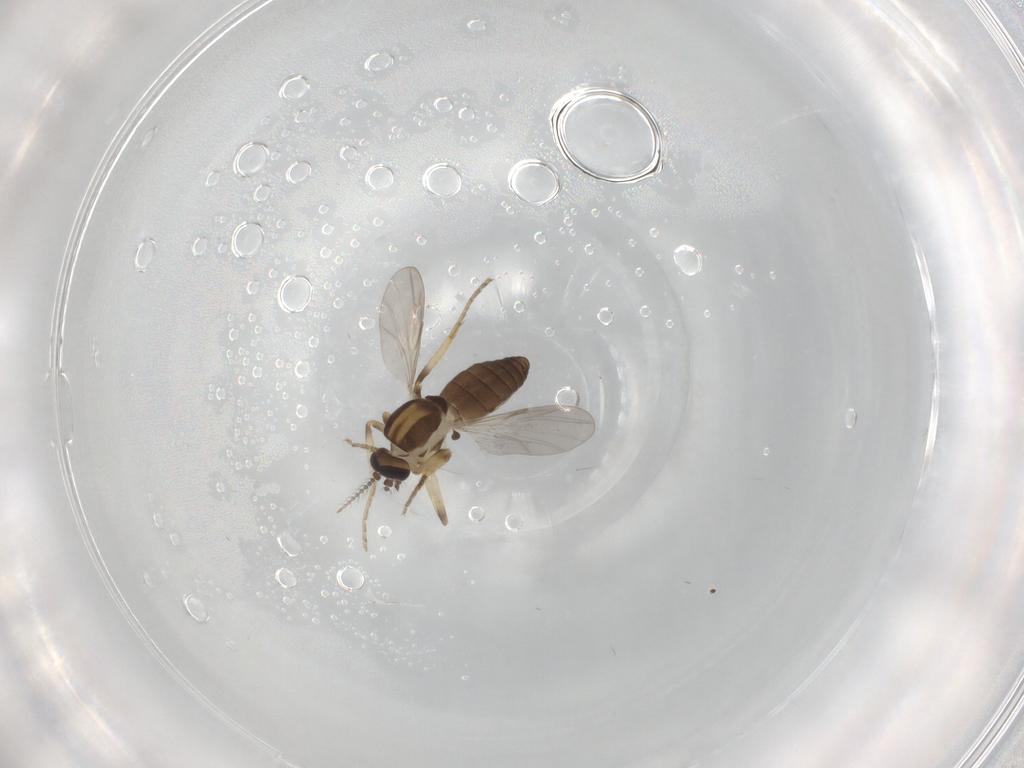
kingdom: Animalia
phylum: Arthropoda
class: Insecta
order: Diptera
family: Ceratopogonidae
